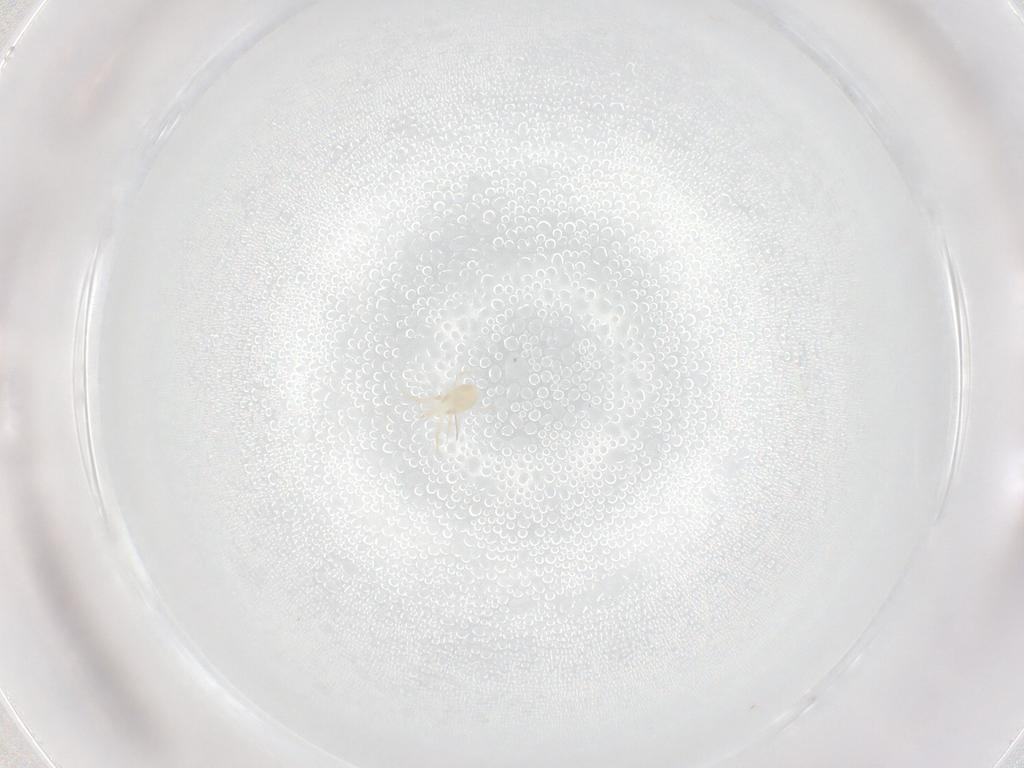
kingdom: Animalia
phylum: Arthropoda
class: Arachnida
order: Mesostigmata
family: Phytoseiidae
